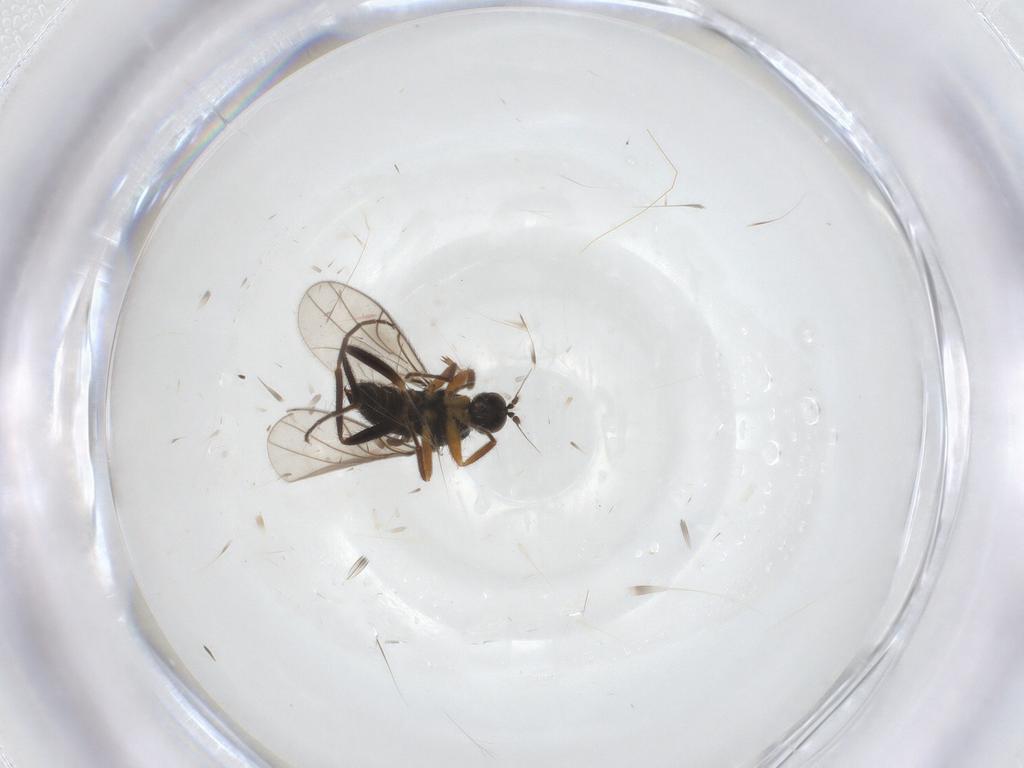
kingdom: Animalia
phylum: Arthropoda
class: Insecta
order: Diptera
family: Hybotidae
